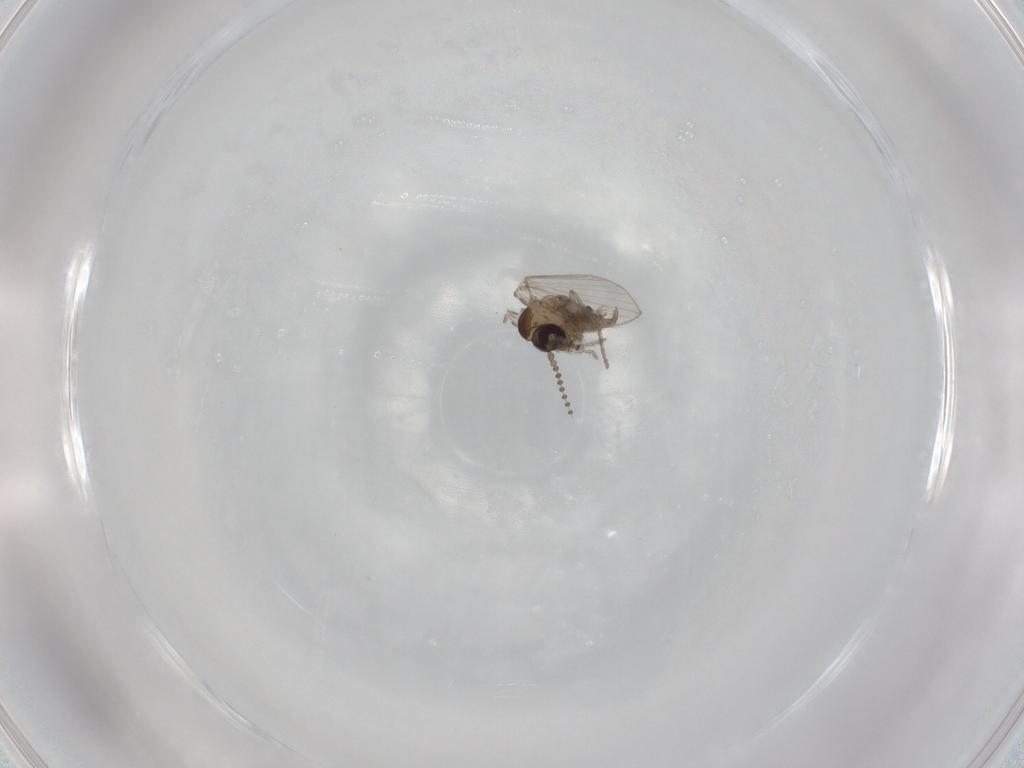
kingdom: Animalia
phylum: Arthropoda
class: Insecta
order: Diptera
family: Psychodidae
